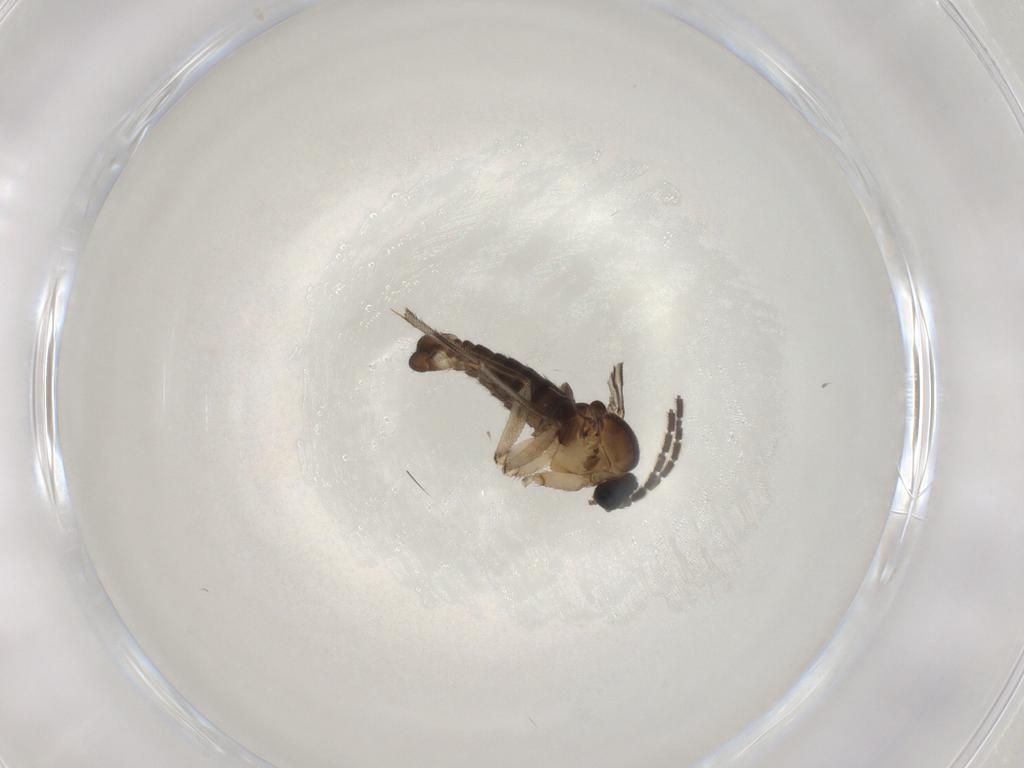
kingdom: Animalia
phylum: Arthropoda
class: Insecta
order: Diptera
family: Sciaridae
